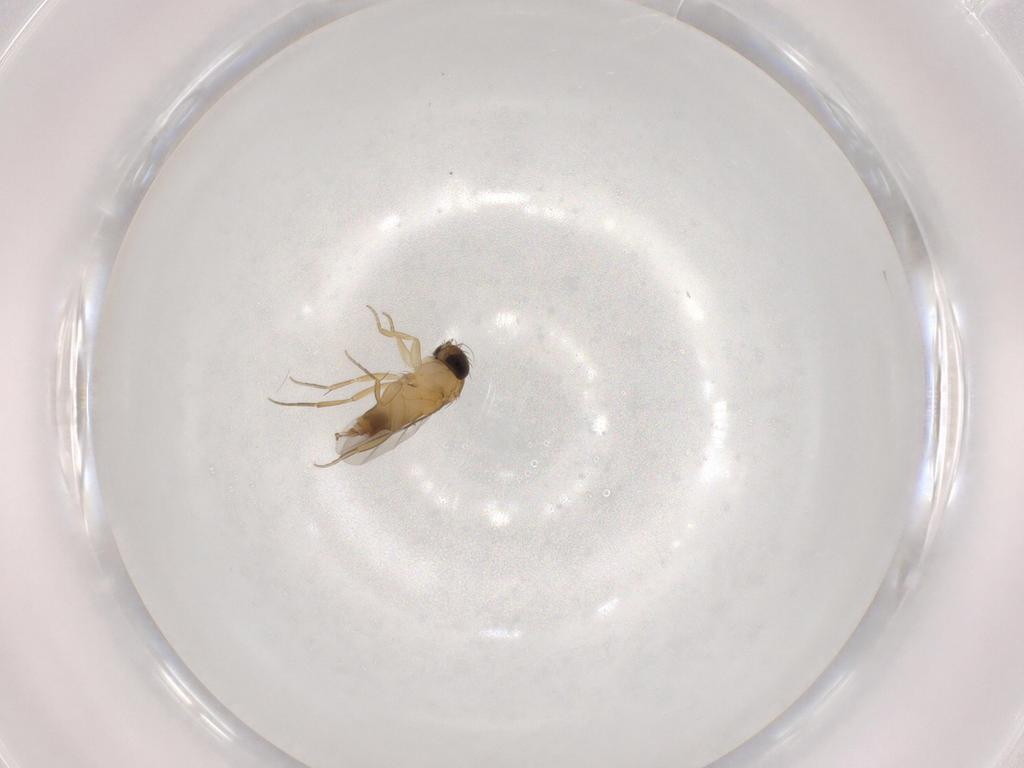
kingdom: Animalia
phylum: Arthropoda
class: Insecta
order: Diptera
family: Phoridae
